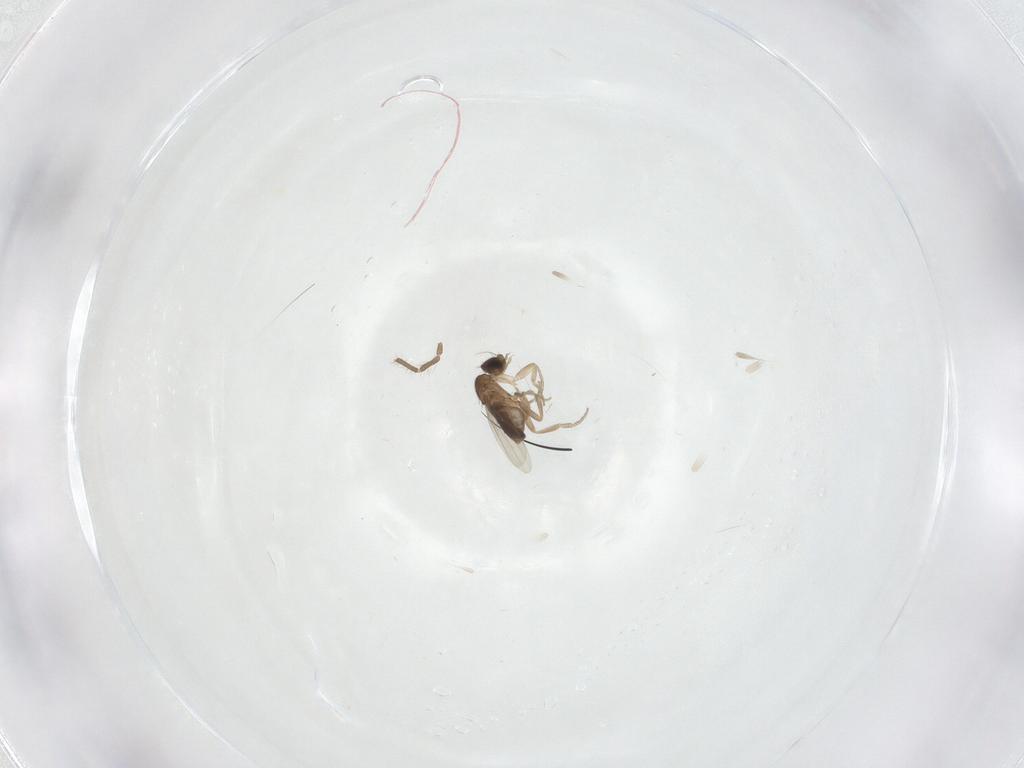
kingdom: Animalia
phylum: Arthropoda
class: Insecta
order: Diptera
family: Phoridae
